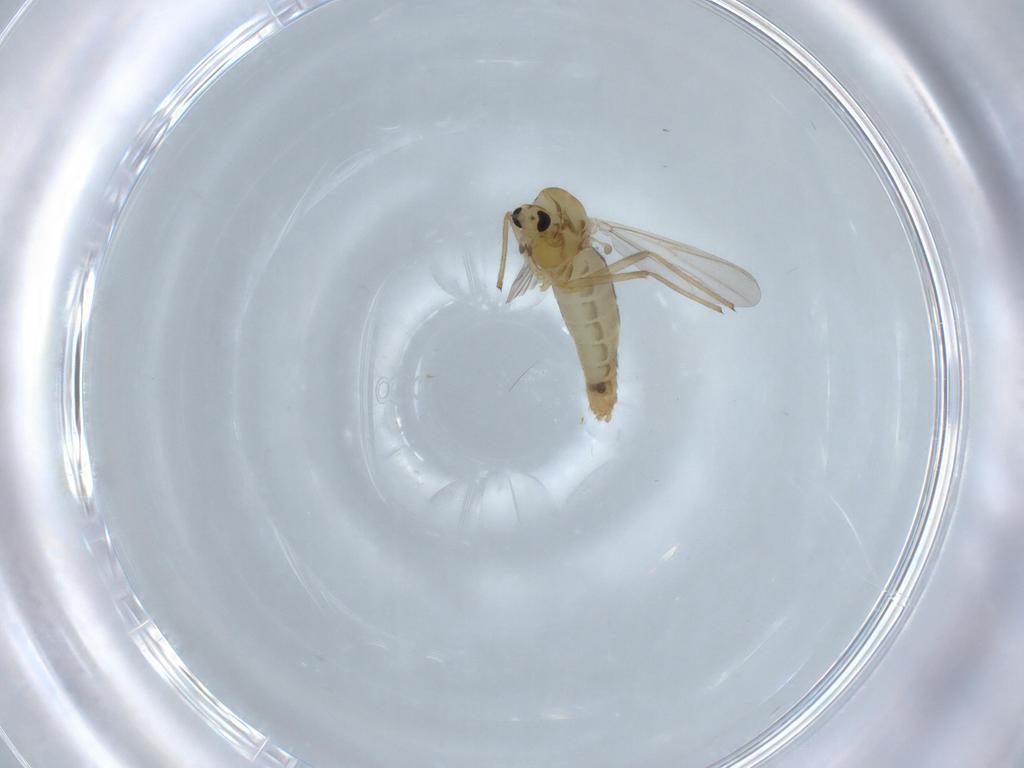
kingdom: Animalia
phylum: Arthropoda
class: Insecta
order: Diptera
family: Chironomidae
